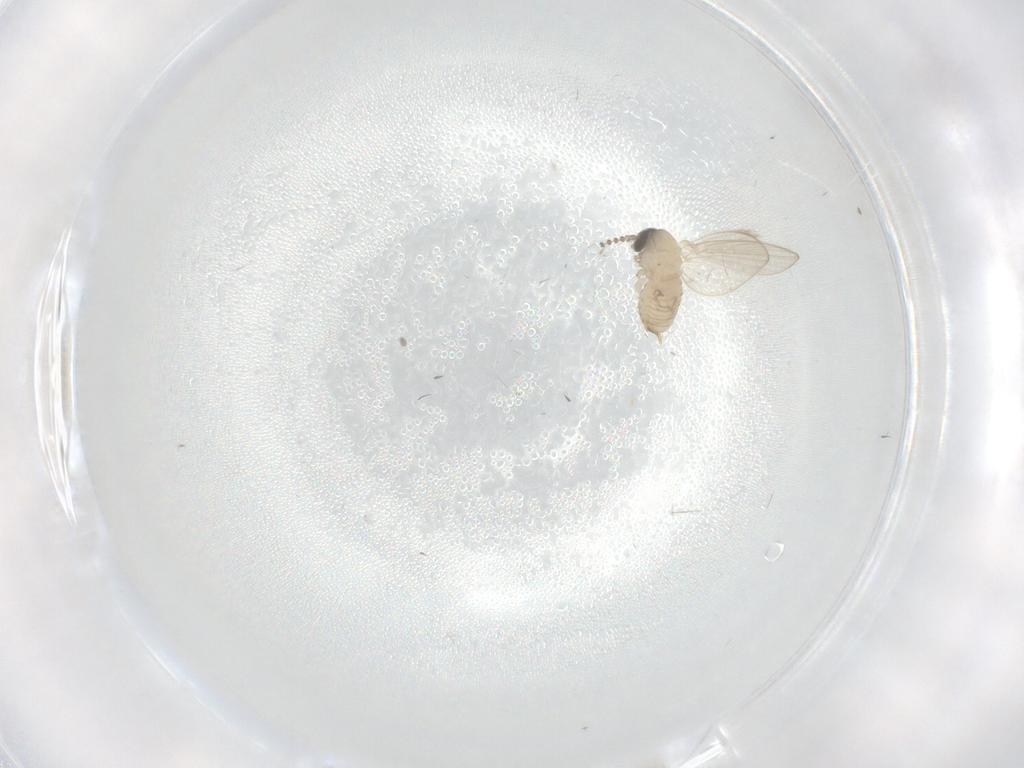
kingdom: Animalia
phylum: Arthropoda
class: Insecta
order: Diptera
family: Psychodidae
